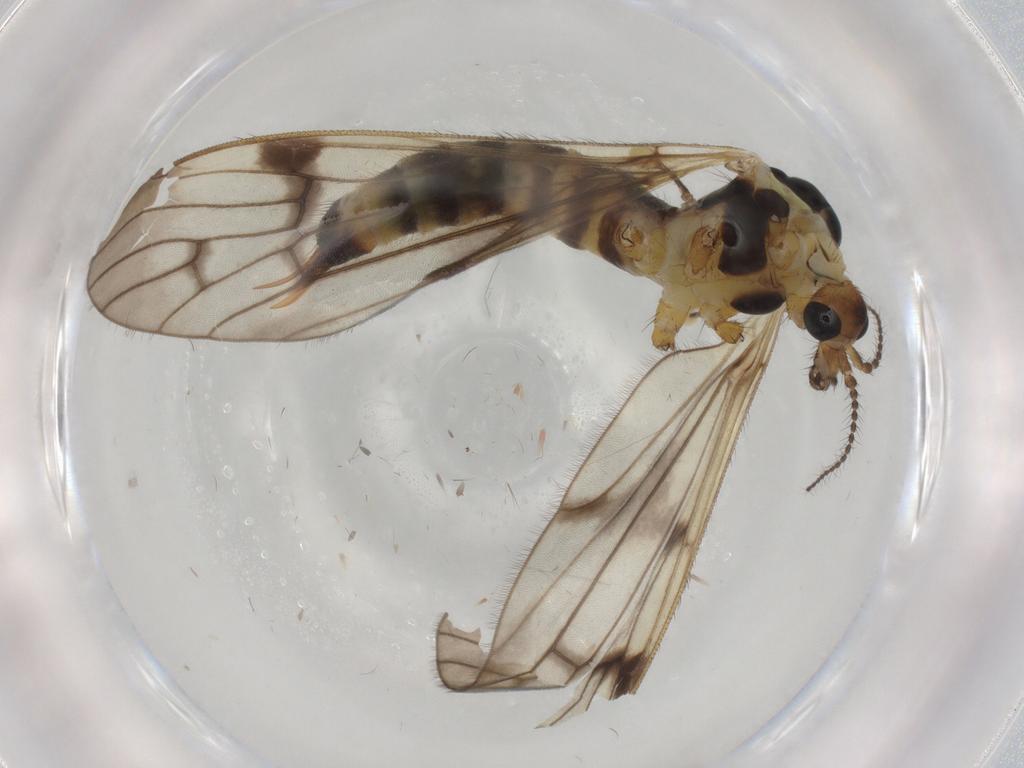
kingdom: Animalia
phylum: Arthropoda
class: Insecta
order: Diptera
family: Limoniidae
